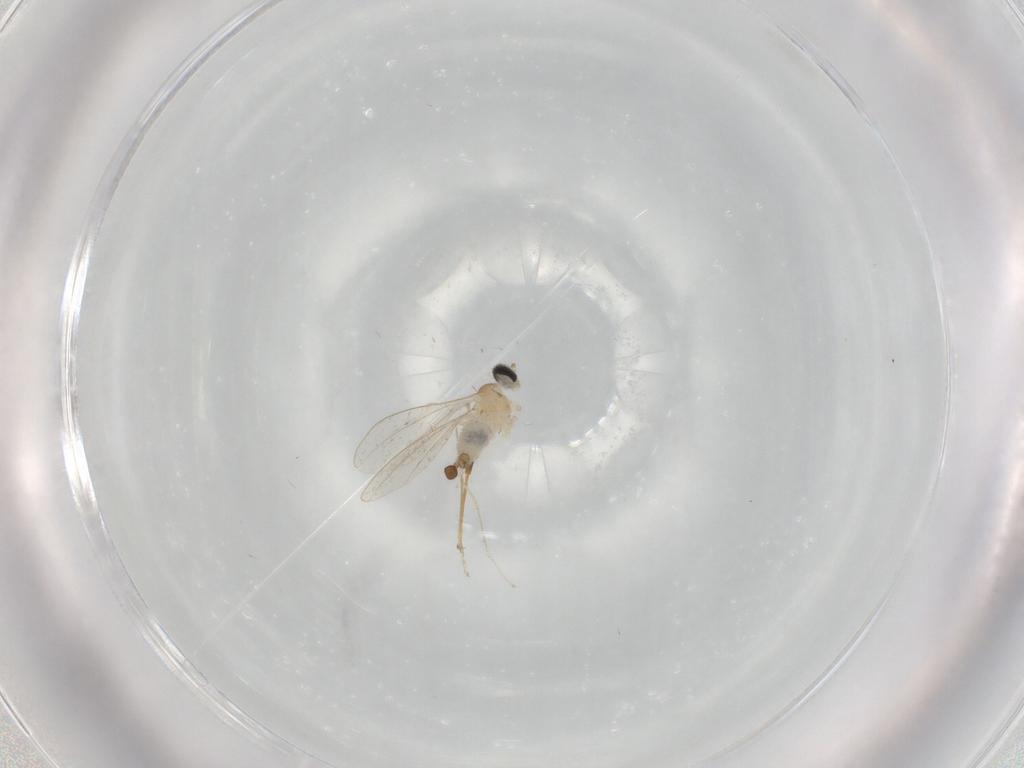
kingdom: Animalia
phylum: Arthropoda
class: Insecta
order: Diptera
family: Cecidomyiidae
